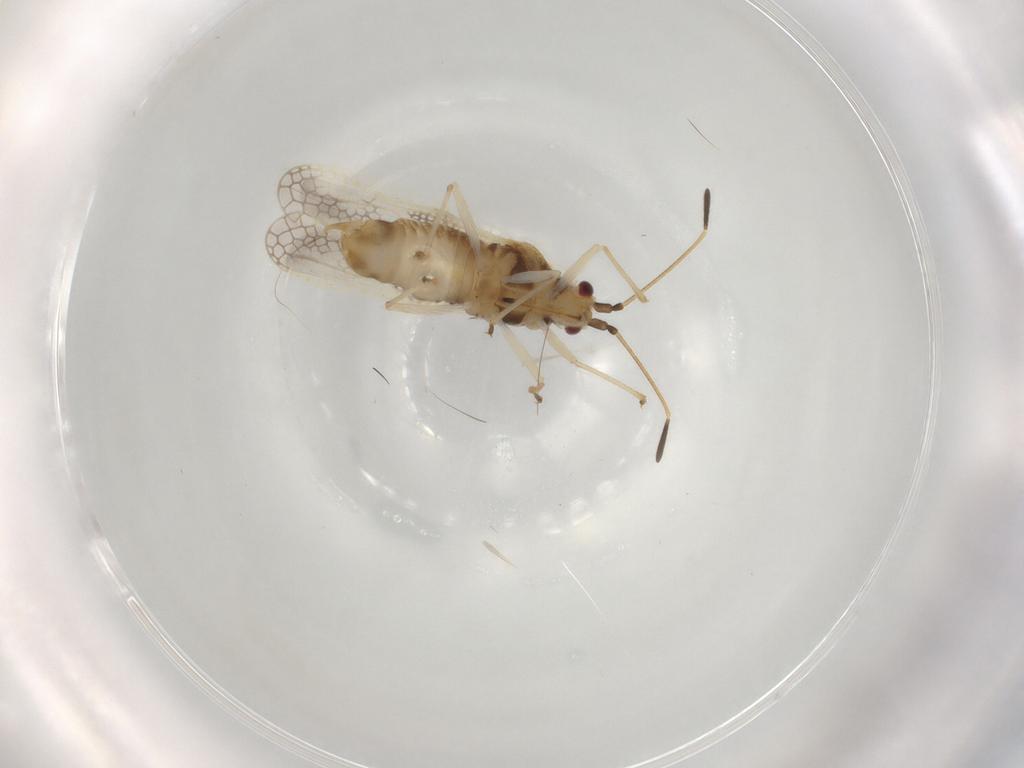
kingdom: Animalia
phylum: Arthropoda
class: Insecta
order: Hemiptera
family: Tingidae
